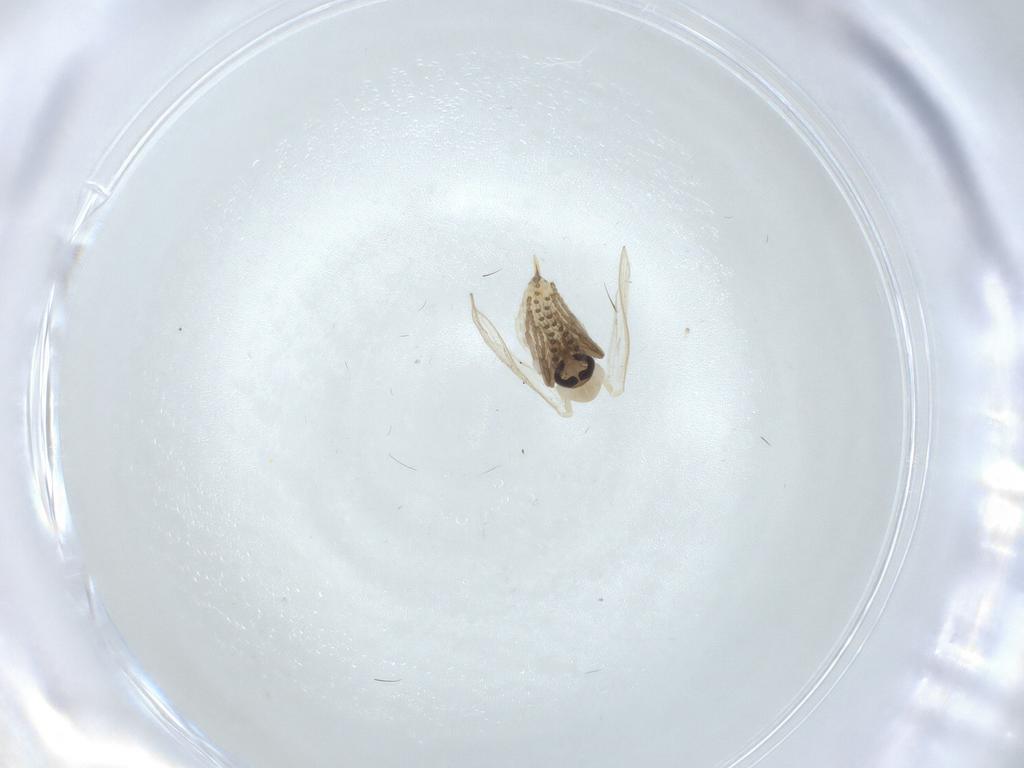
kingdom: Animalia
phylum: Arthropoda
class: Insecta
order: Diptera
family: Psychodidae
